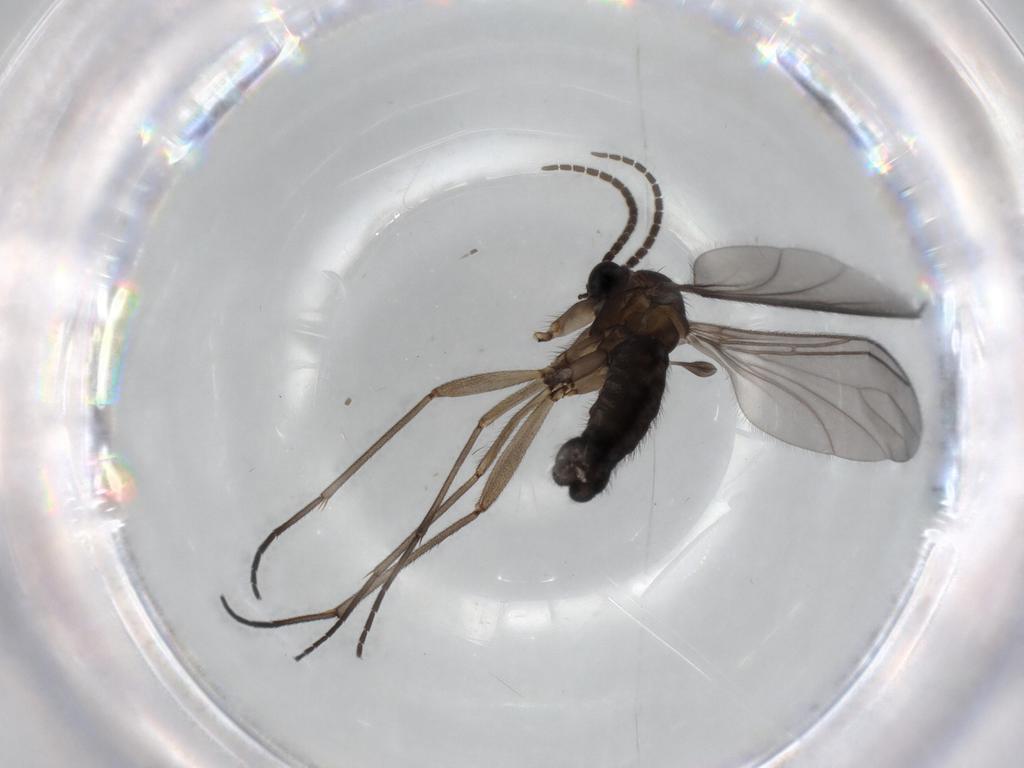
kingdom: Animalia
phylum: Arthropoda
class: Insecta
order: Diptera
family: Sciaridae
